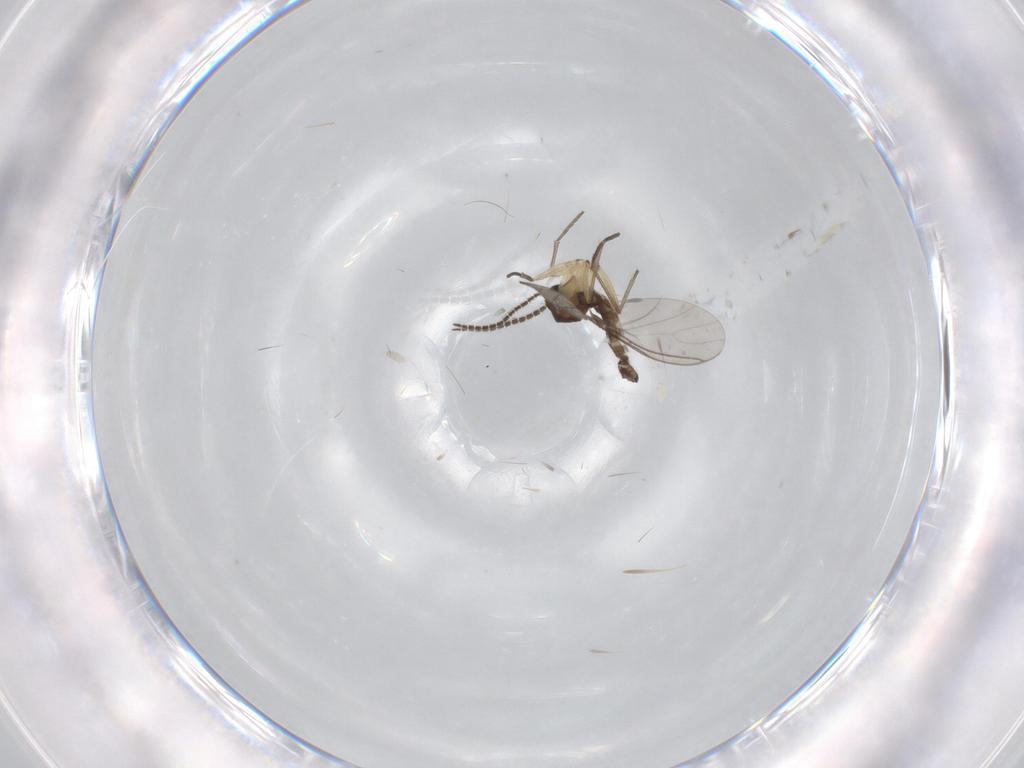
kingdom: Animalia
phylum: Arthropoda
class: Insecta
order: Diptera
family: Sciaridae
